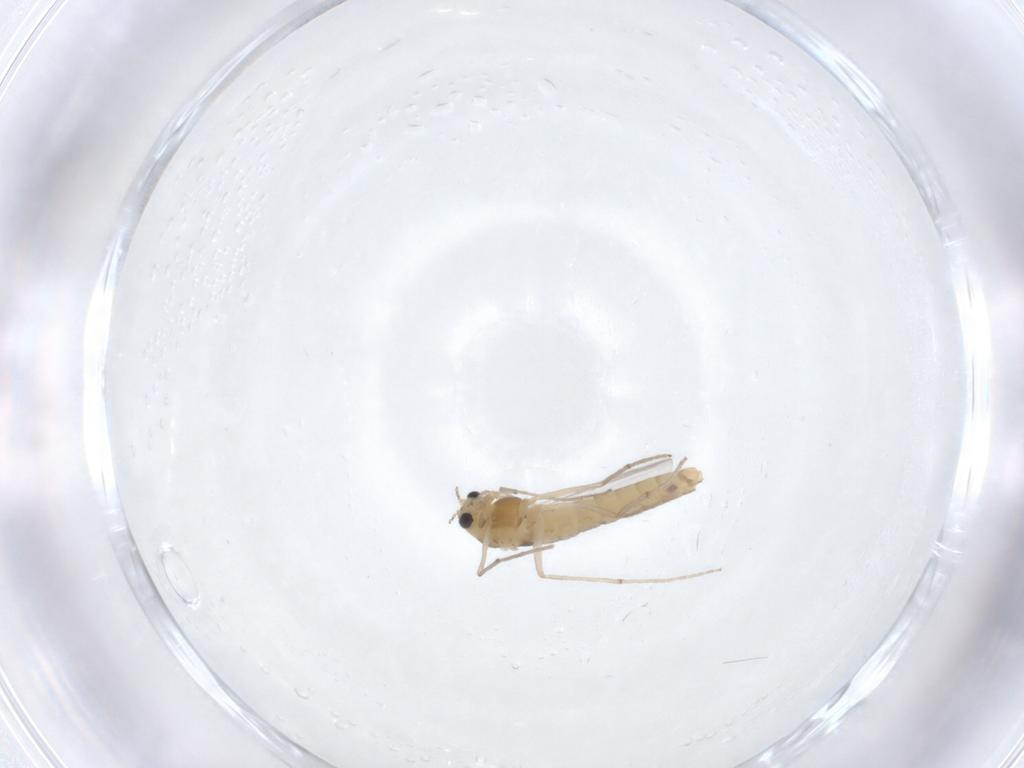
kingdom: Animalia
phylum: Arthropoda
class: Insecta
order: Diptera
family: Chironomidae
